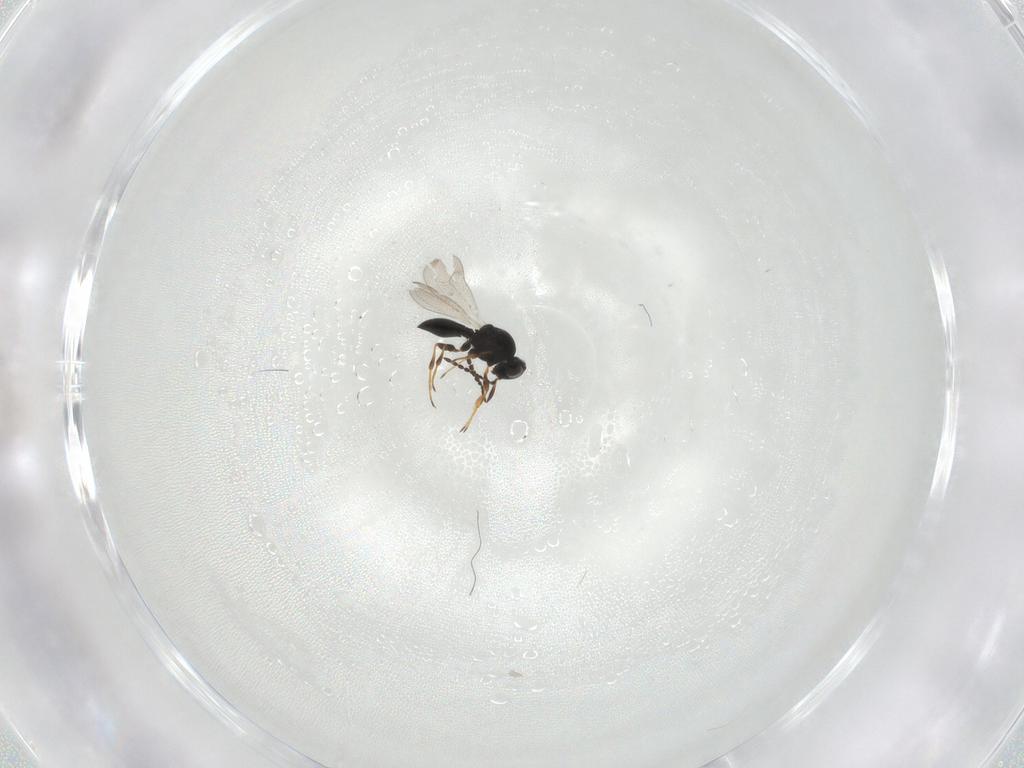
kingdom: Animalia
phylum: Arthropoda
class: Insecta
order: Hymenoptera
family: Platygastridae
